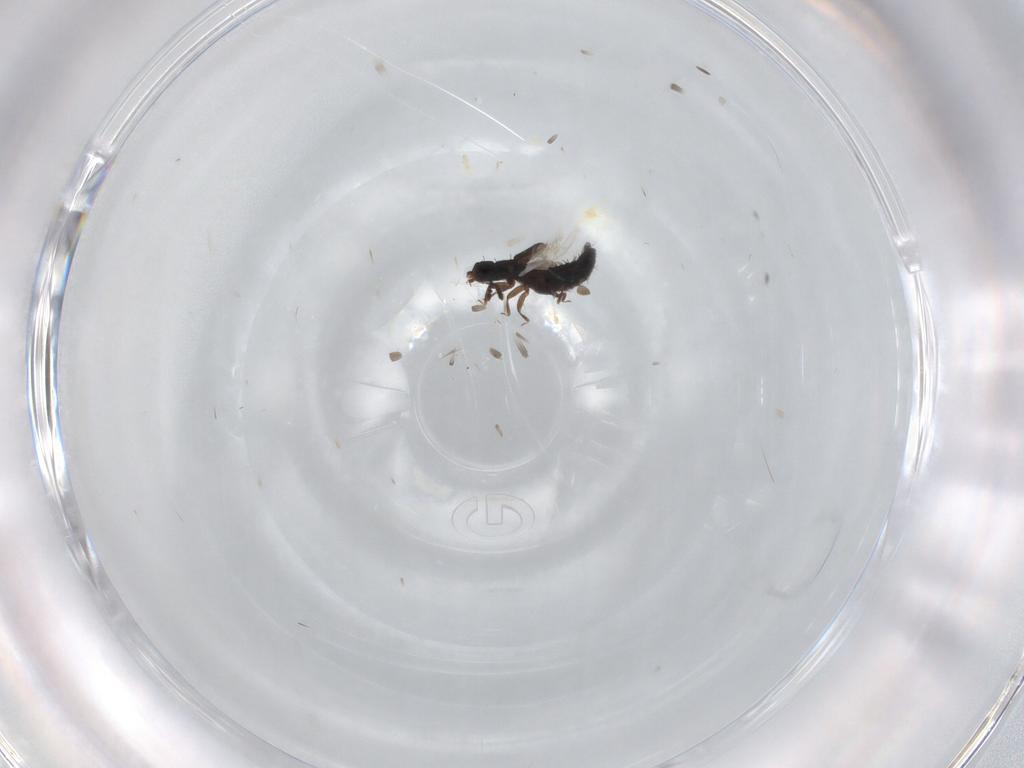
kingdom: Animalia
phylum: Arthropoda
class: Insecta
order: Coleoptera
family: Staphylinidae
